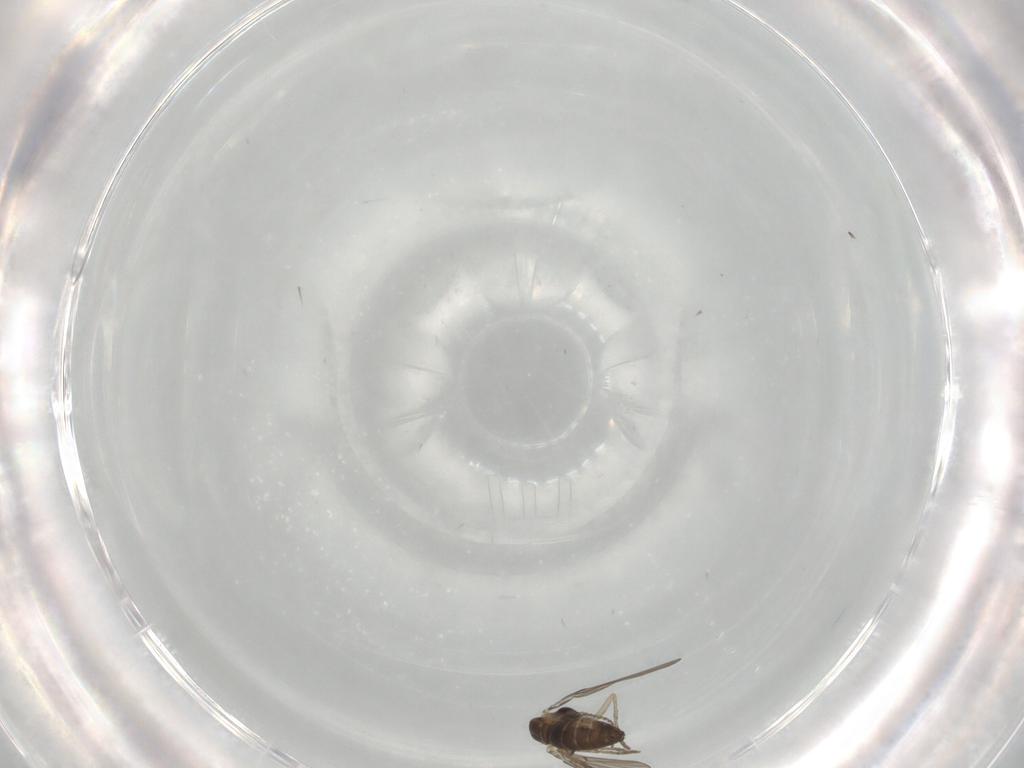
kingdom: Animalia
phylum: Arthropoda
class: Insecta
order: Diptera
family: Psychodidae
